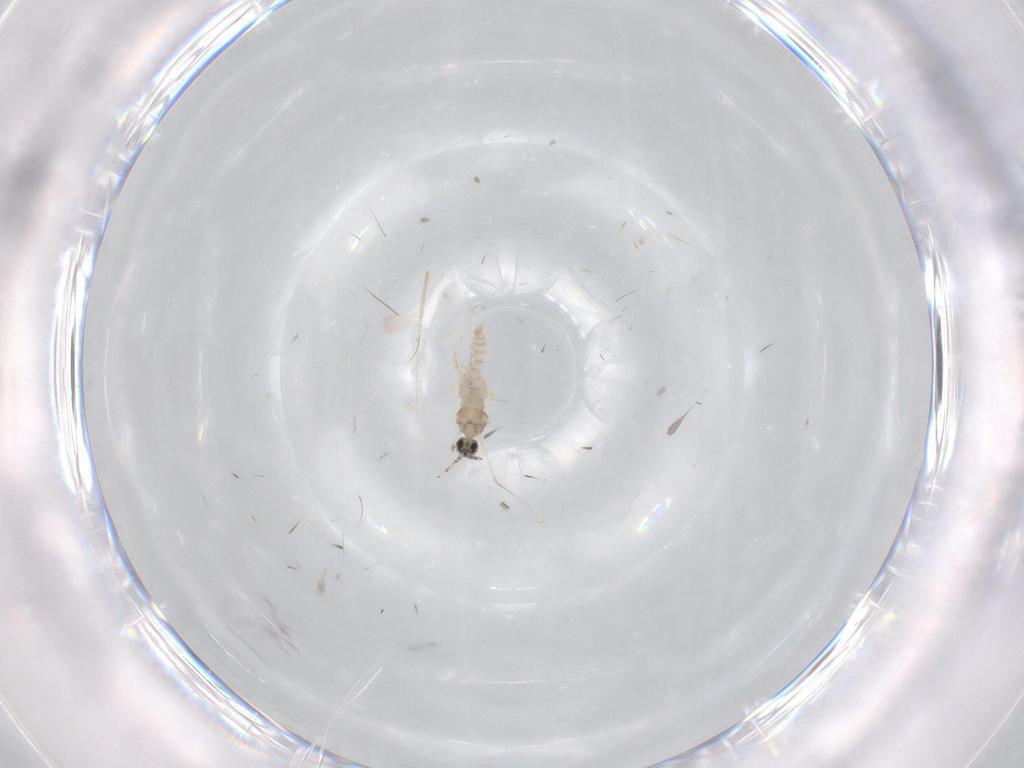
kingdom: Animalia
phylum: Arthropoda
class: Insecta
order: Diptera
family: Cecidomyiidae
